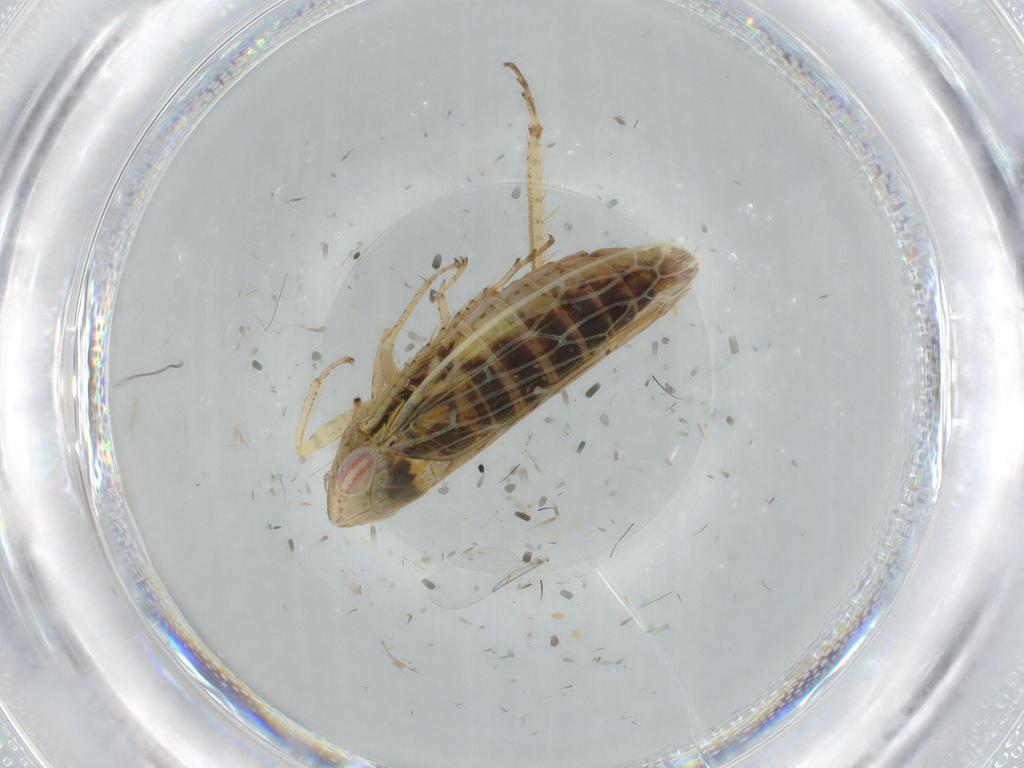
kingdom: Animalia
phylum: Arthropoda
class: Insecta
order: Hemiptera
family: Cicadellidae
